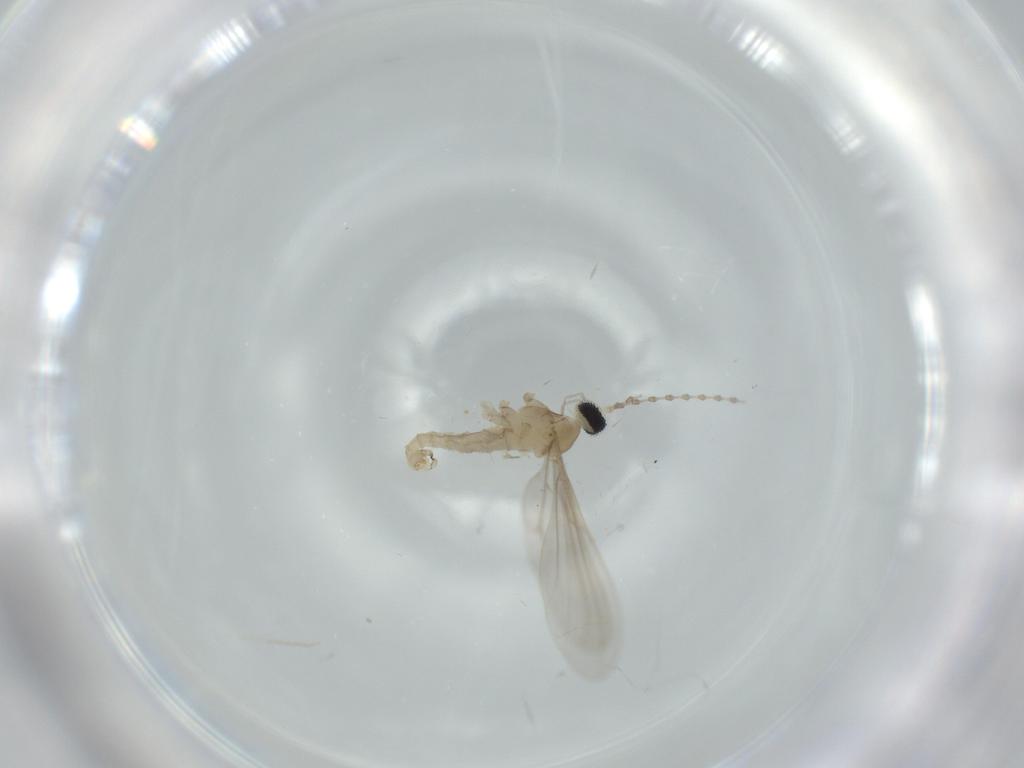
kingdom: Animalia
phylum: Arthropoda
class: Insecta
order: Diptera
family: Cecidomyiidae
